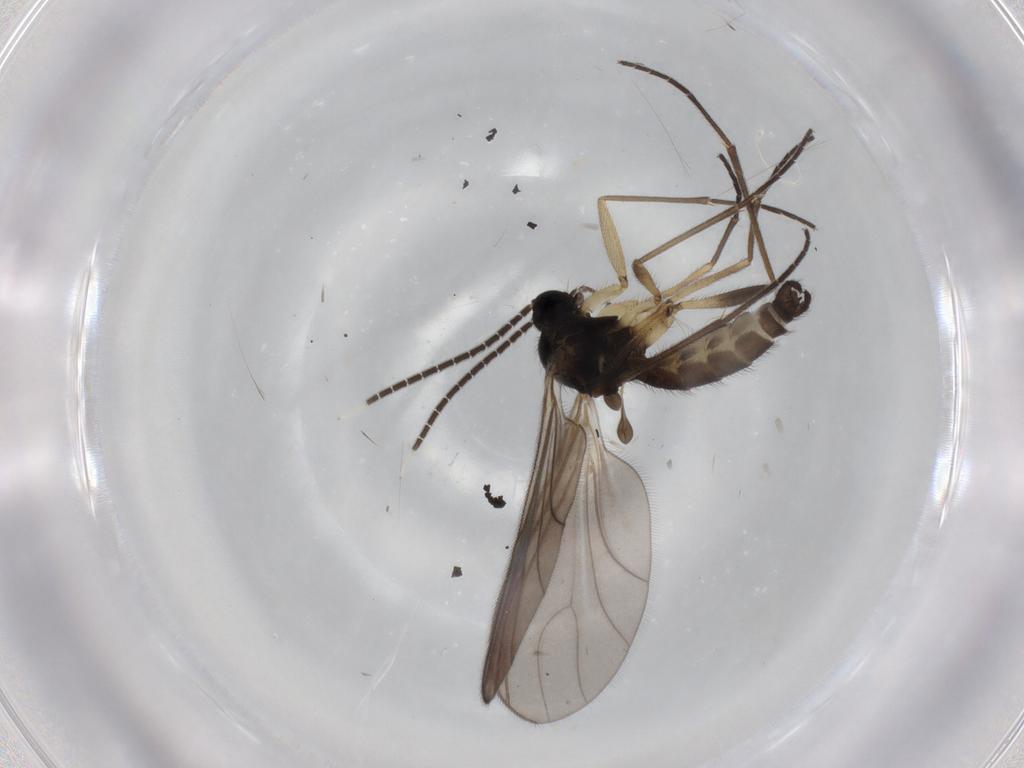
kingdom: Animalia
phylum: Arthropoda
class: Insecta
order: Diptera
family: Sciaridae
